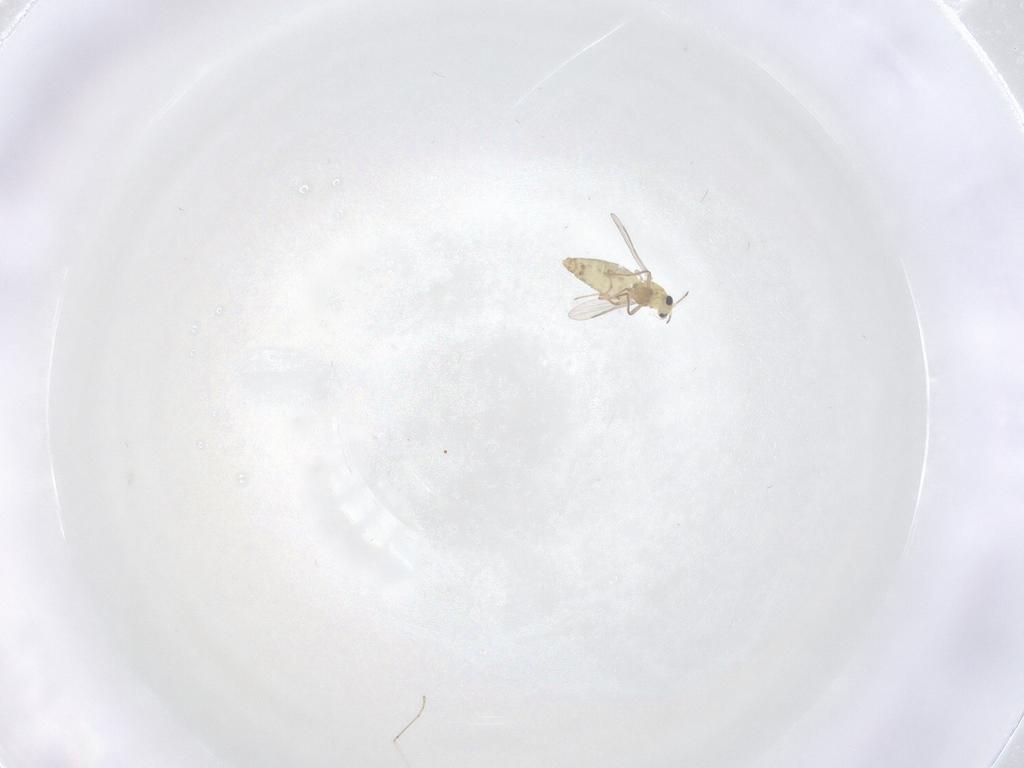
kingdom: Animalia
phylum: Arthropoda
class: Insecta
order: Diptera
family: Chironomidae
